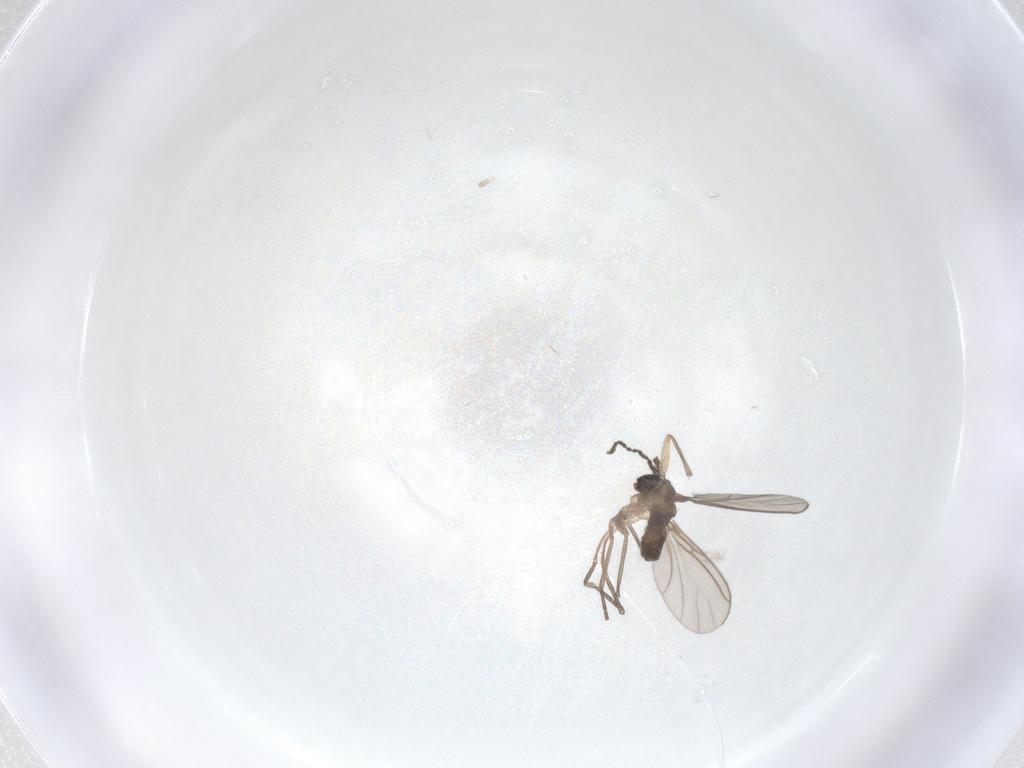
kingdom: Animalia
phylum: Arthropoda
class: Insecta
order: Diptera
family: Sciaridae
